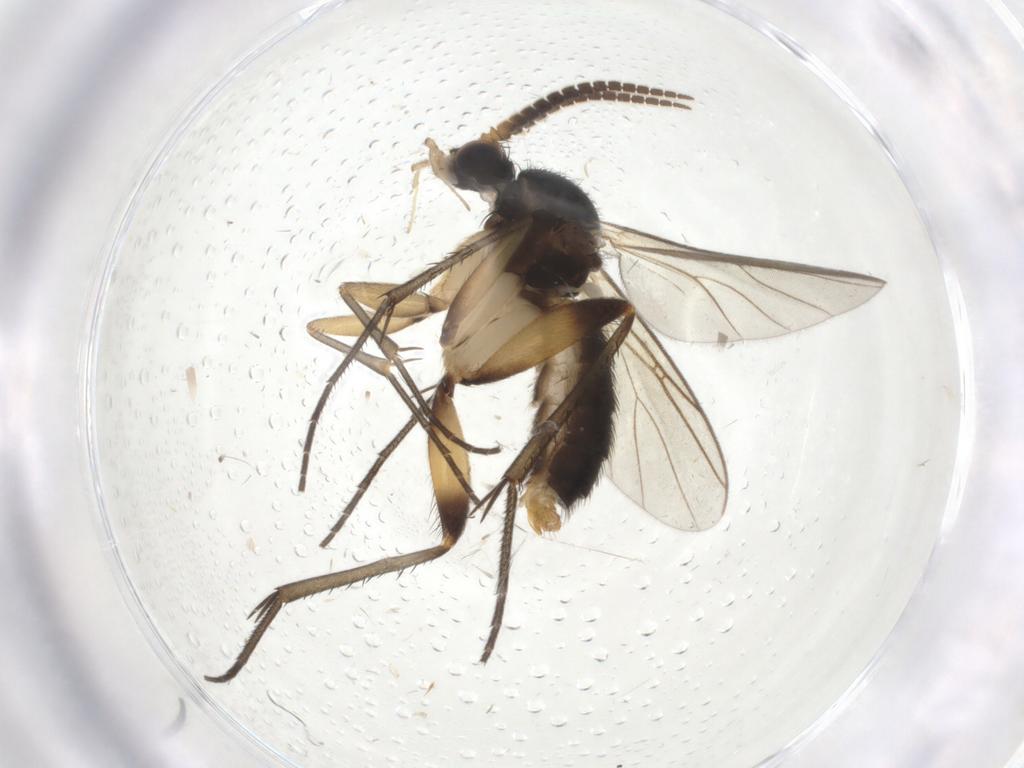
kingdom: Animalia
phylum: Arthropoda
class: Insecta
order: Diptera
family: Mycetophilidae
